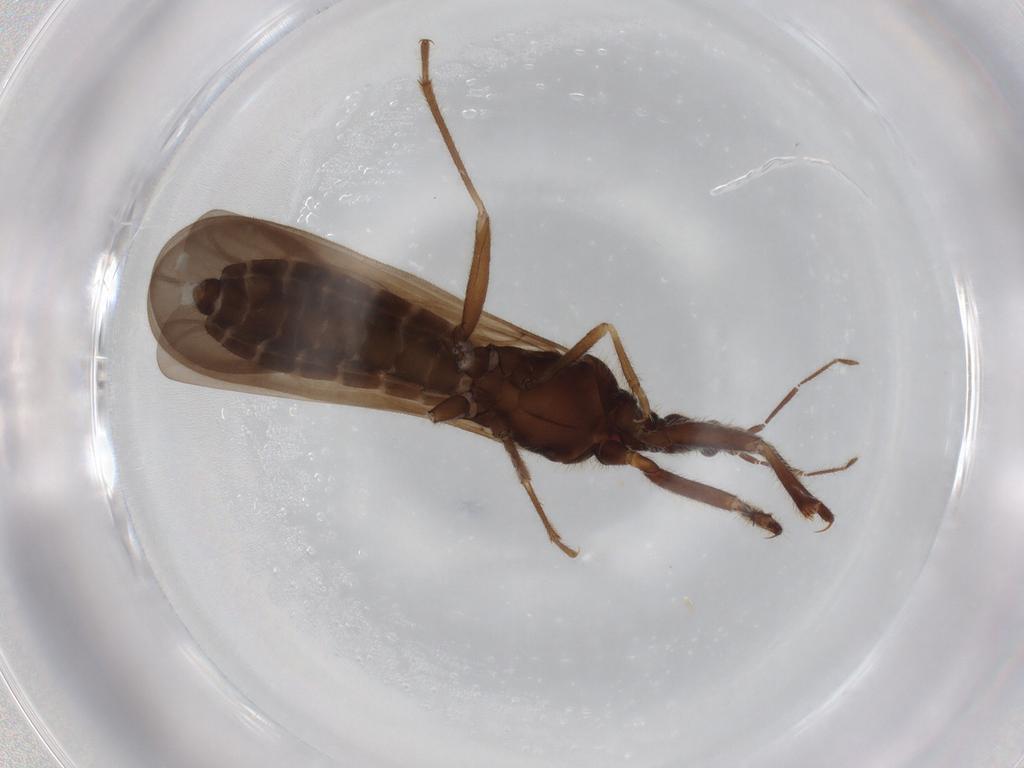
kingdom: Animalia
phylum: Arthropoda
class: Insecta
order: Hemiptera
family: Enicocephalidae
